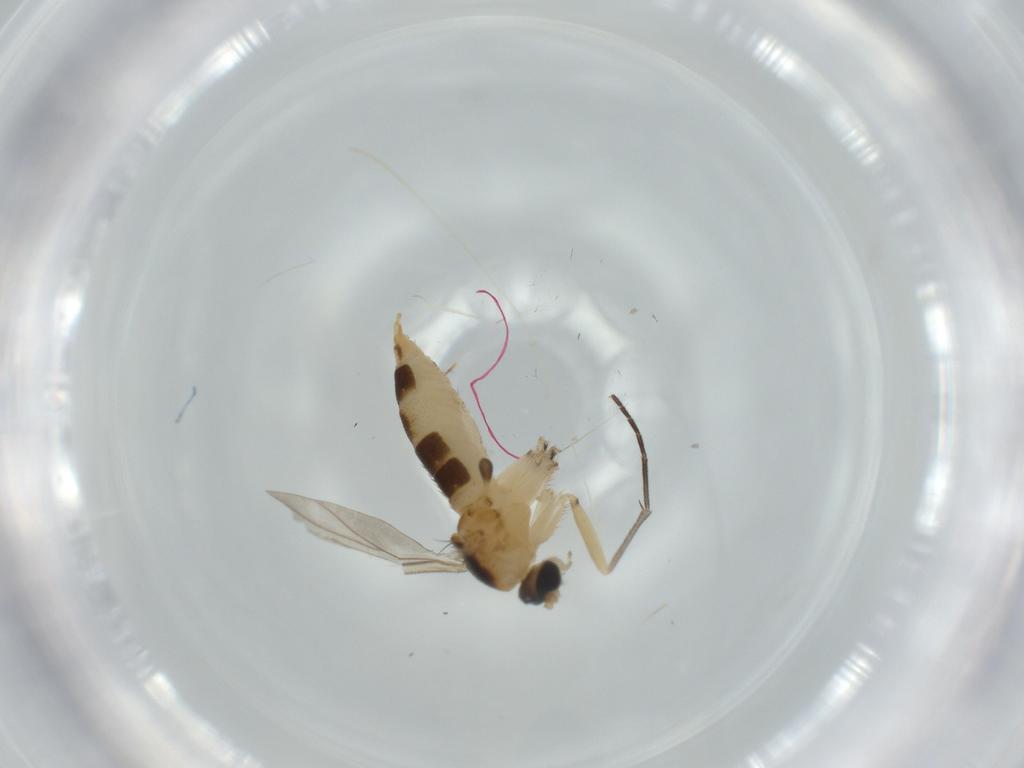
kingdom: Animalia
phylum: Arthropoda
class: Insecta
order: Diptera
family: Sciaridae
